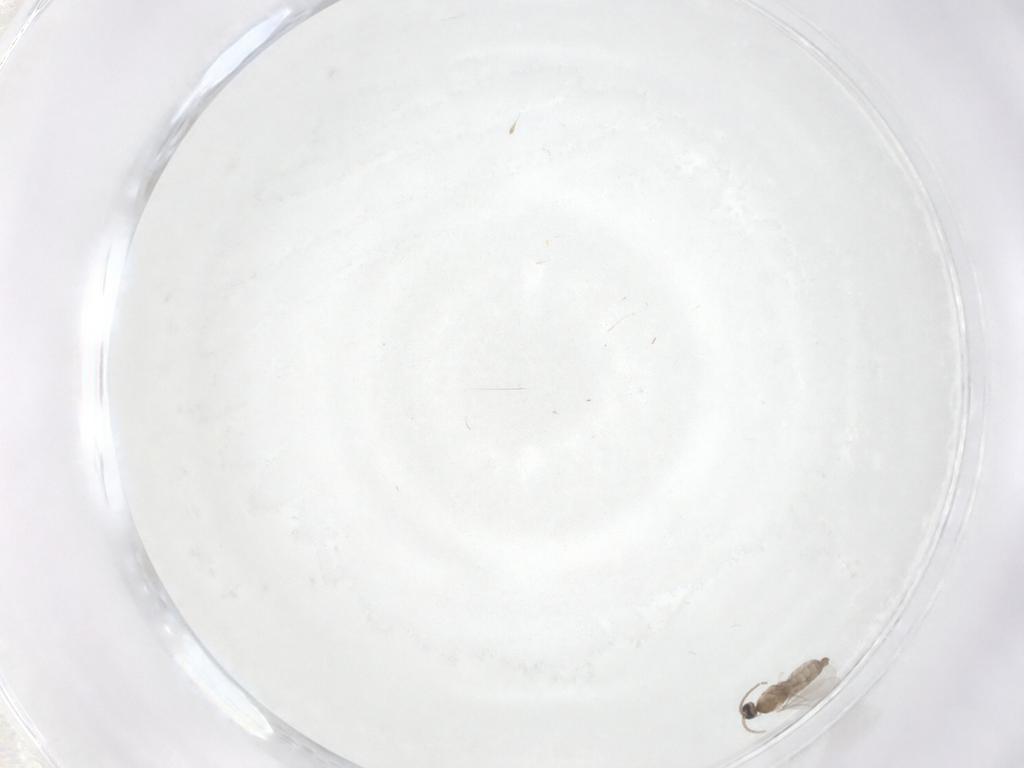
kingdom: Animalia
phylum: Arthropoda
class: Insecta
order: Diptera
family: Cecidomyiidae
